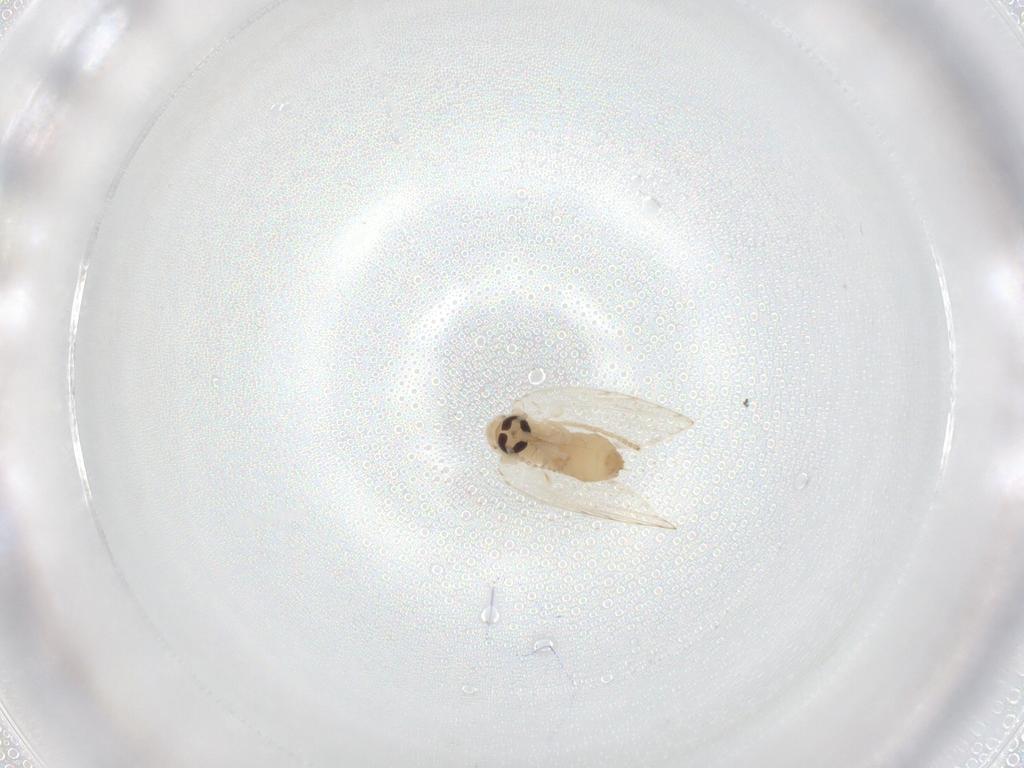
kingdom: Animalia
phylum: Arthropoda
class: Insecta
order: Diptera
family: Psychodidae
